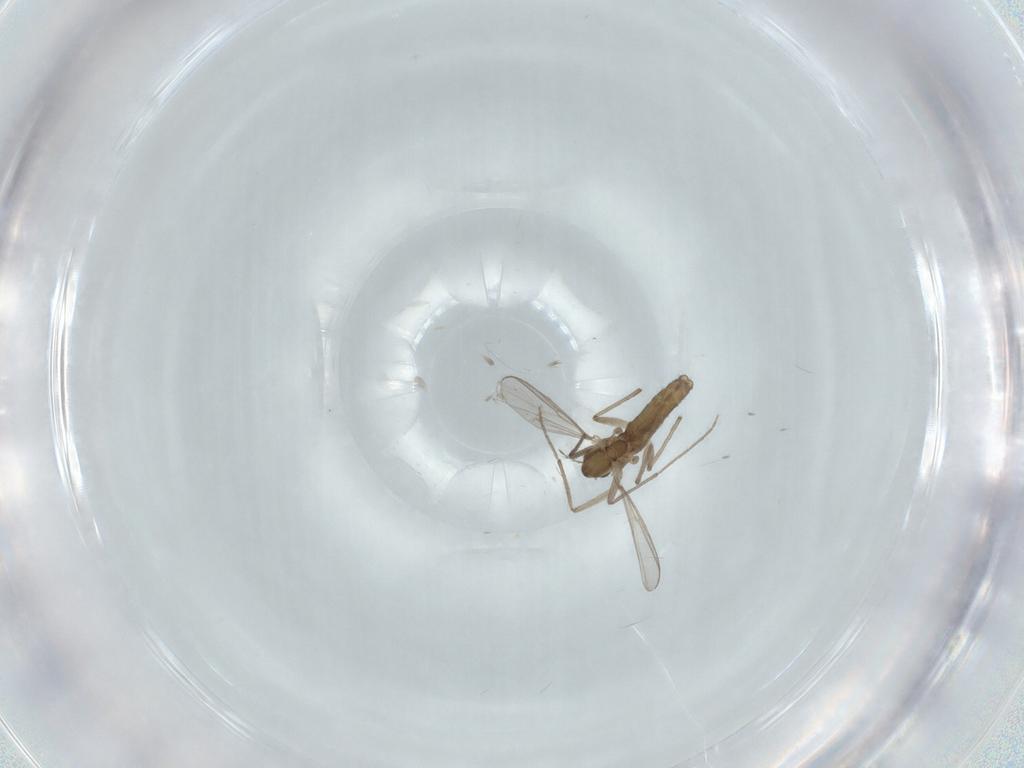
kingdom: Animalia
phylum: Arthropoda
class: Insecta
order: Diptera
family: Chironomidae
